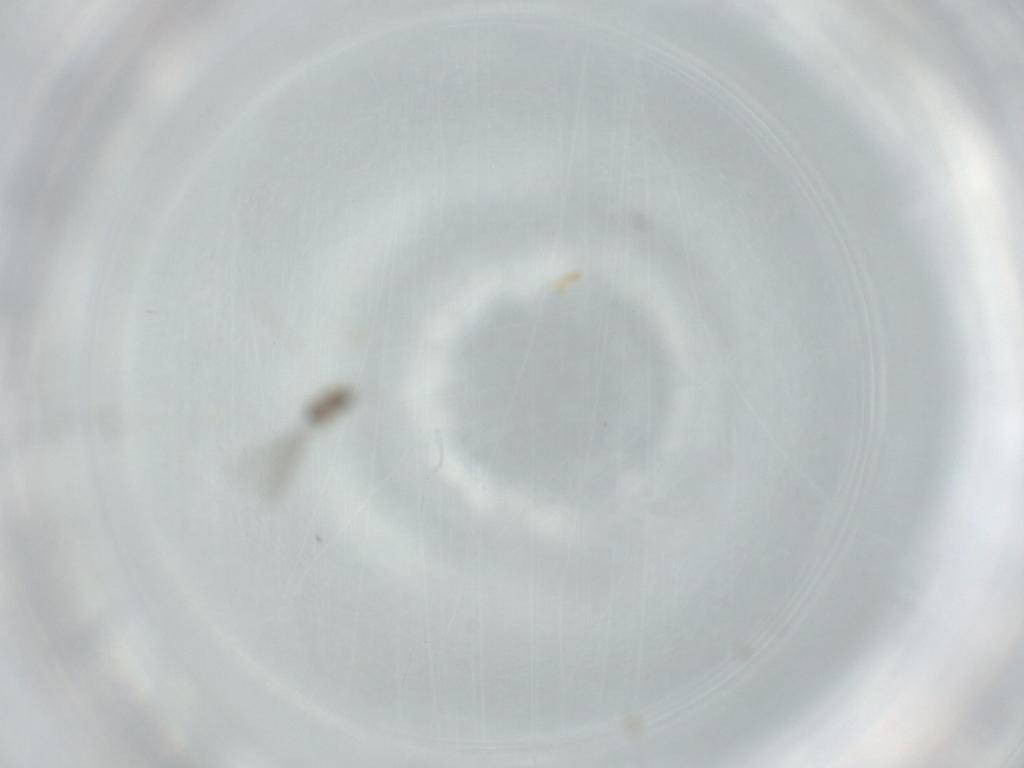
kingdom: Animalia
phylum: Arthropoda
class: Insecta
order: Diptera
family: Cecidomyiidae
